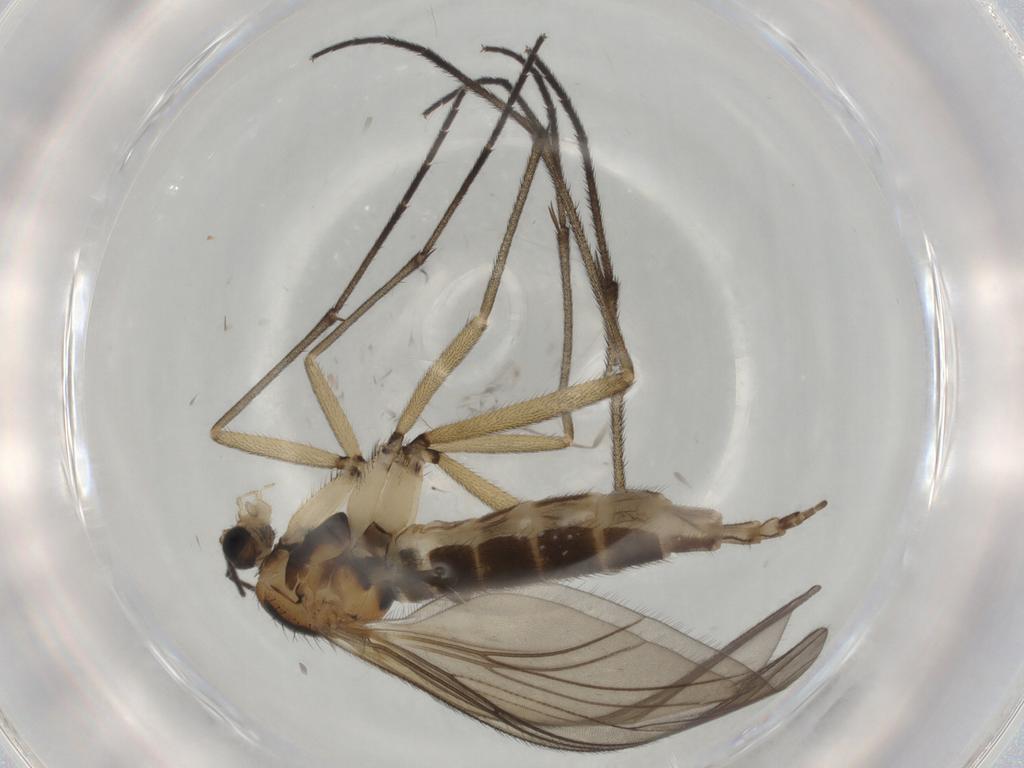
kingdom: Animalia
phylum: Arthropoda
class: Insecta
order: Diptera
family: Sciaridae
